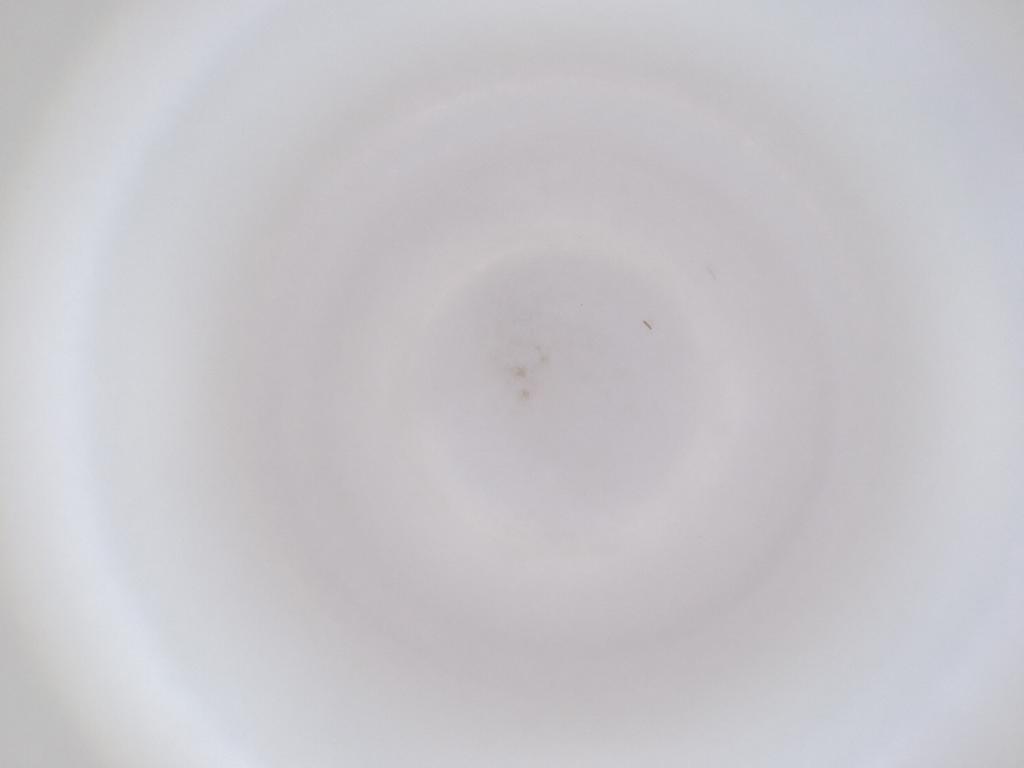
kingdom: Animalia
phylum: Arthropoda
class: Insecta
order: Diptera
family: Cecidomyiidae
